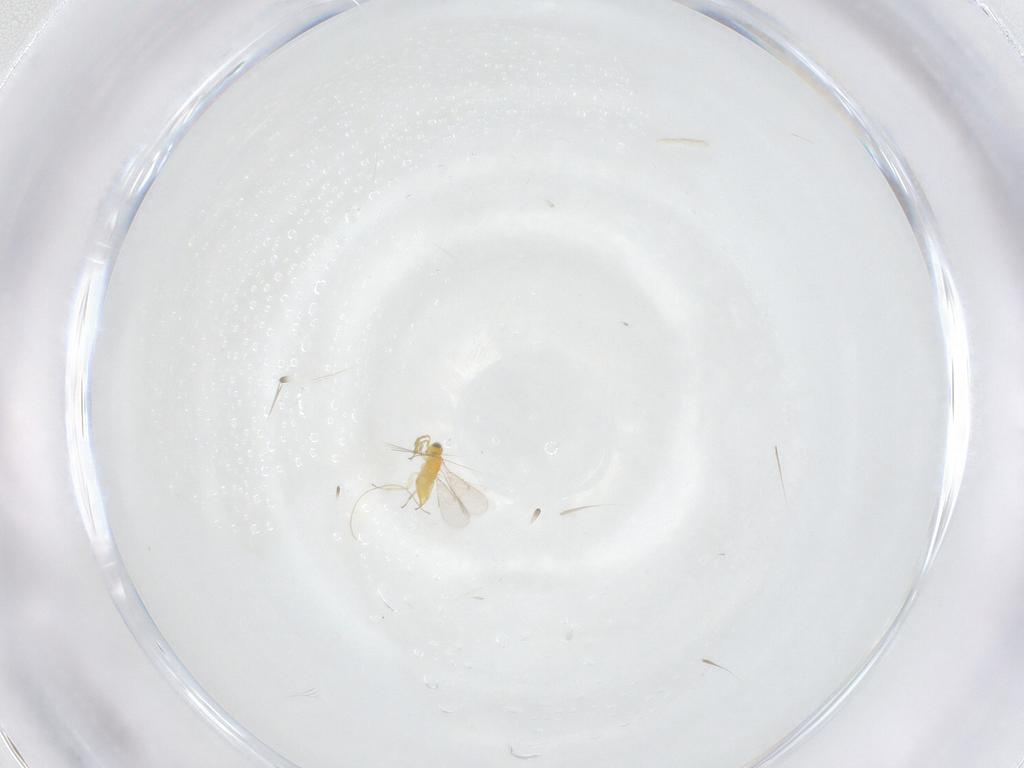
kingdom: Animalia
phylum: Arthropoda
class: Insecta
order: Hymenoptera
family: Aphelinidae
